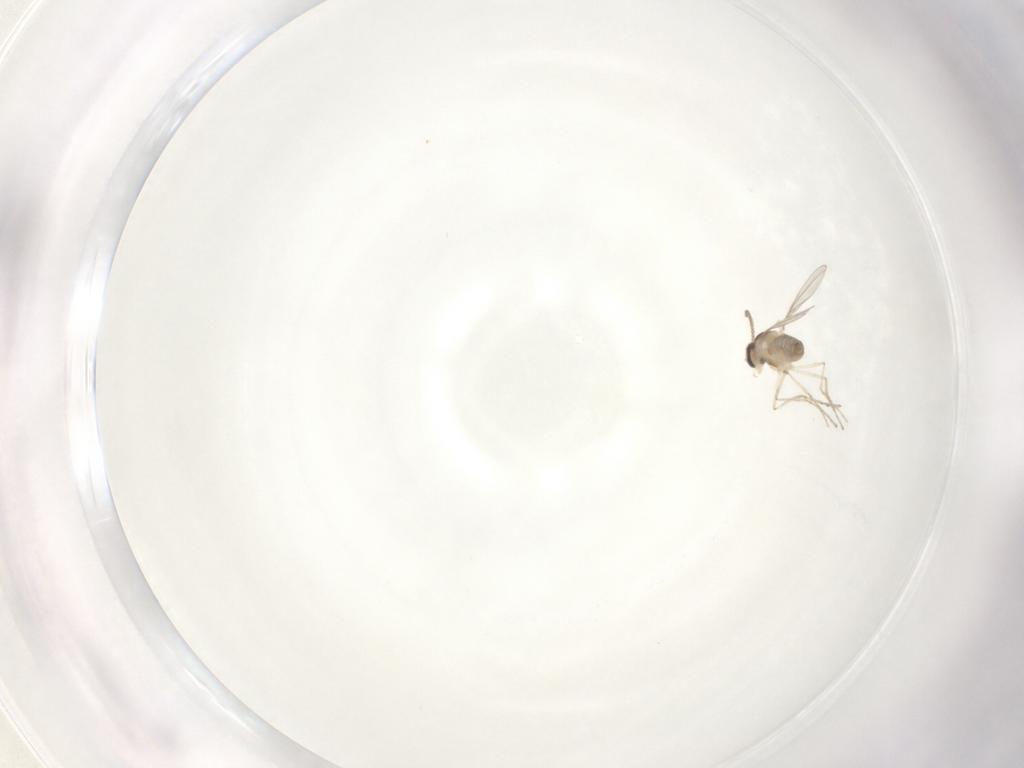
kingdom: Animalia
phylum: Arthropoda
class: Insecta
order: Diptera
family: Cecidomyiidae
